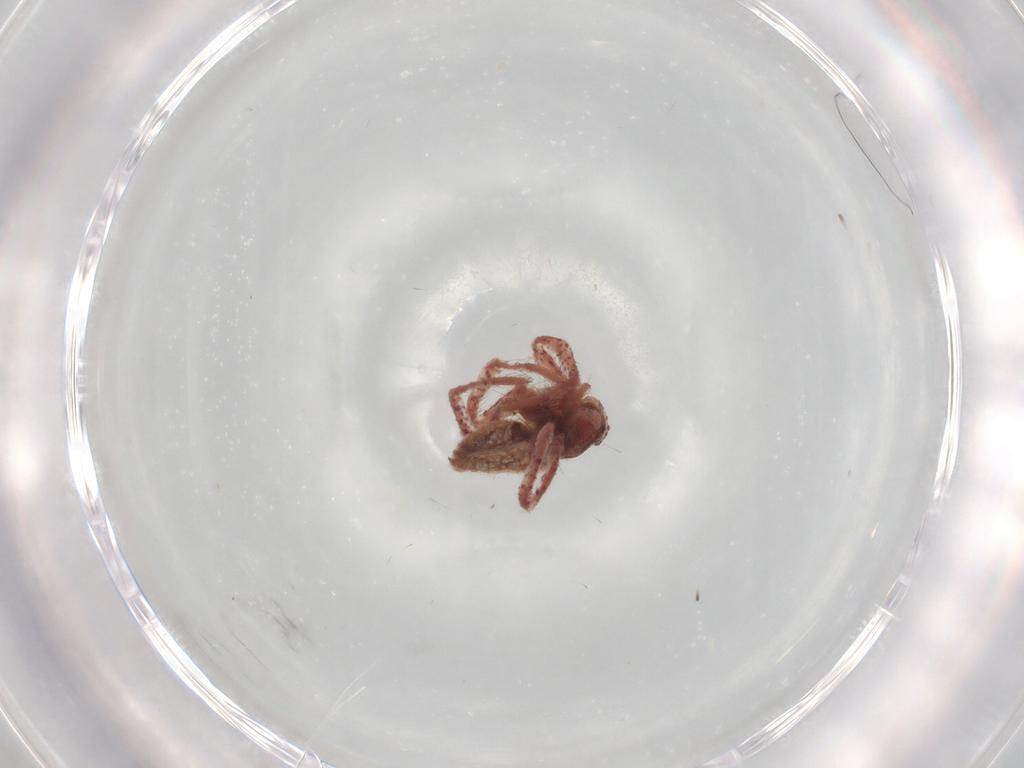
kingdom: Animalia
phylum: Arthropoda
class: Arachnida
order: Araneae
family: Philodromidae
